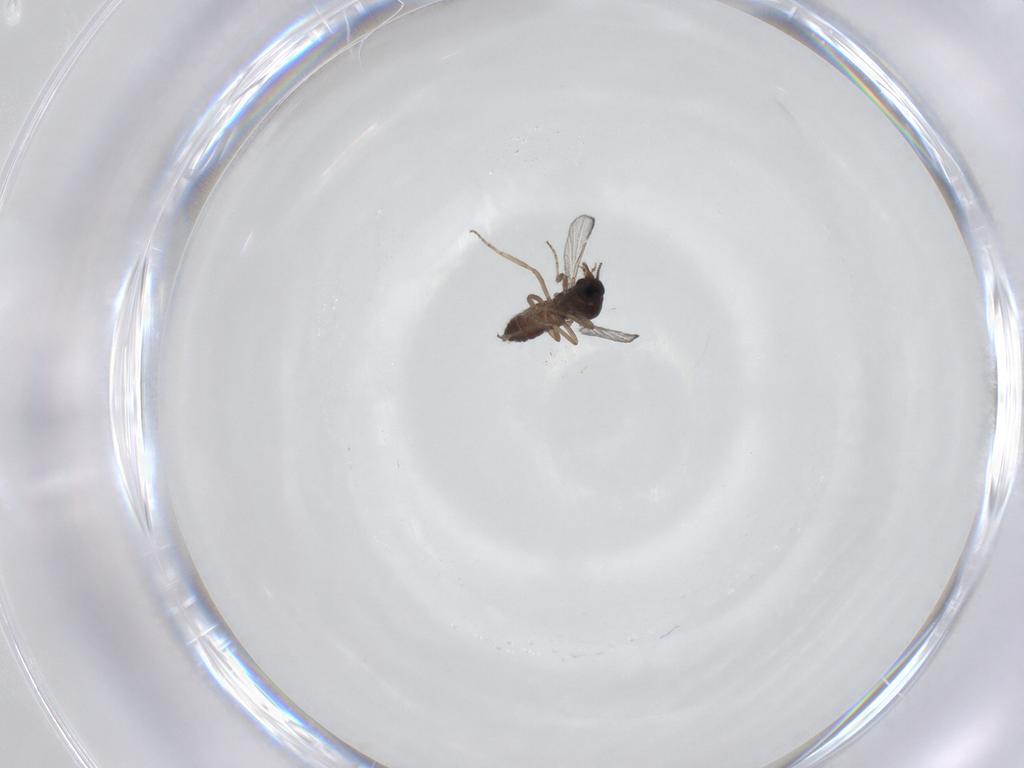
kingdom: Animalia
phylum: Arthropoda
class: Insecta
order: Diptera
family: Ceratopogonidae
